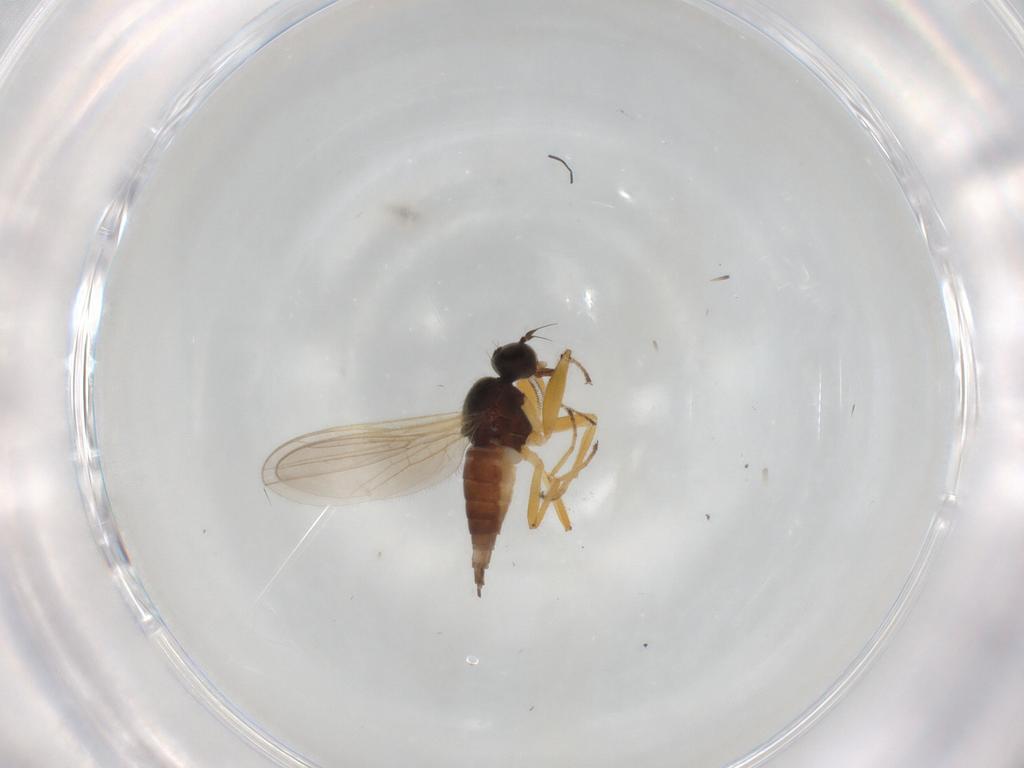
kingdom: Animalia
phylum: Arthropoda
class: Insecta
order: Diptera
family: Hybotidae
